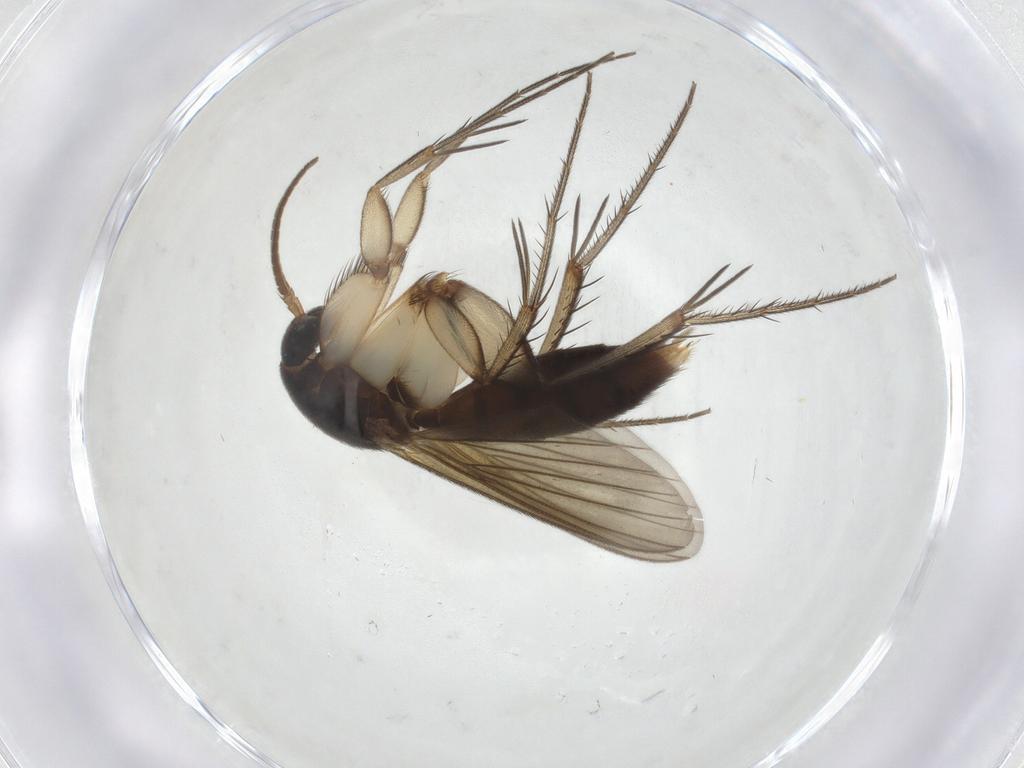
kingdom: Animalia
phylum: Arthropoda
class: Insecta
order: Diptera
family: Mycetophilidae
